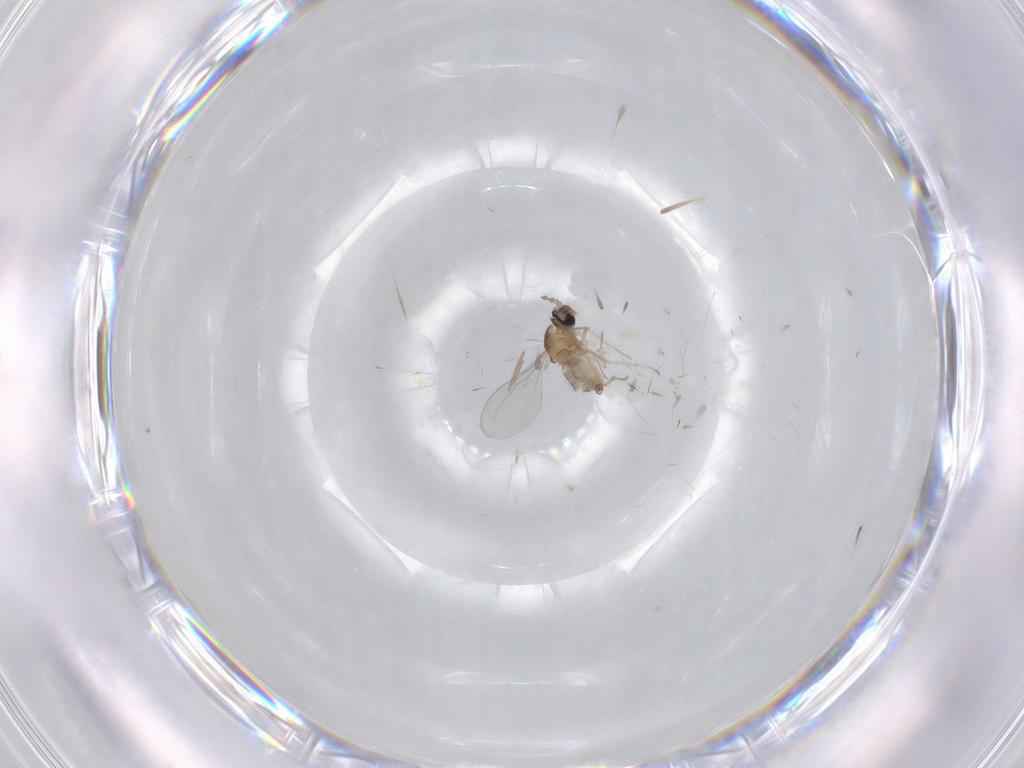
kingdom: Animalia
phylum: Arthropoda
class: Insecta
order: Diptera
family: Cecidomyiidae
